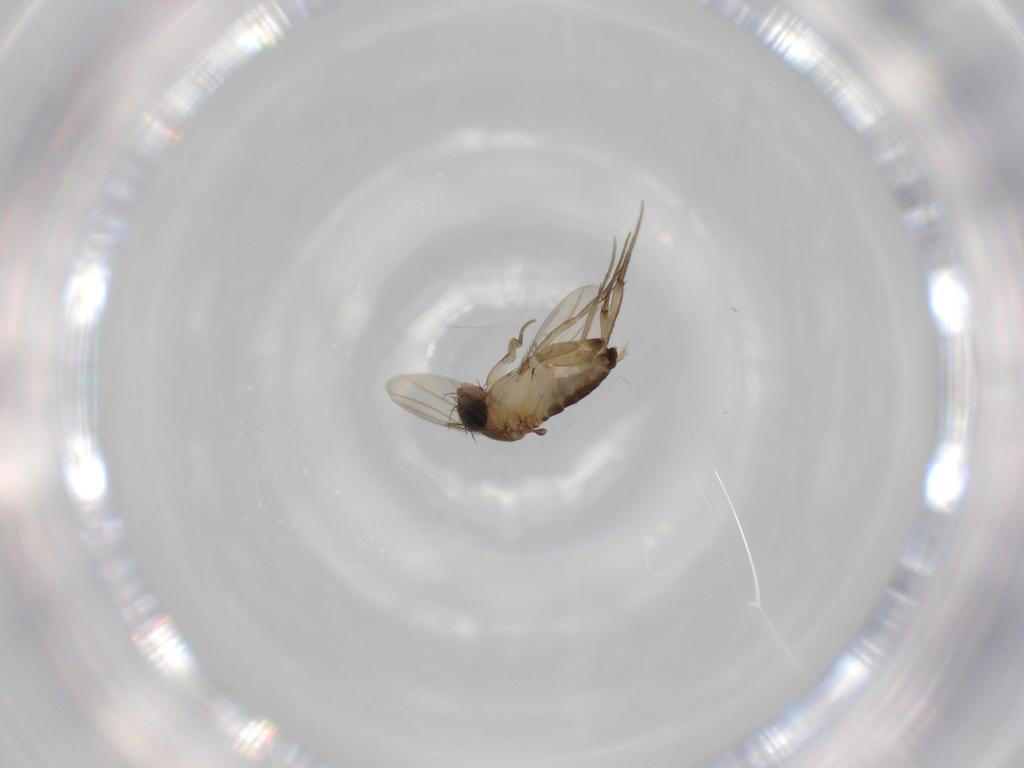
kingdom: Animalia
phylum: Arthropoda
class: Insecta
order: Diptera
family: Phoridae
